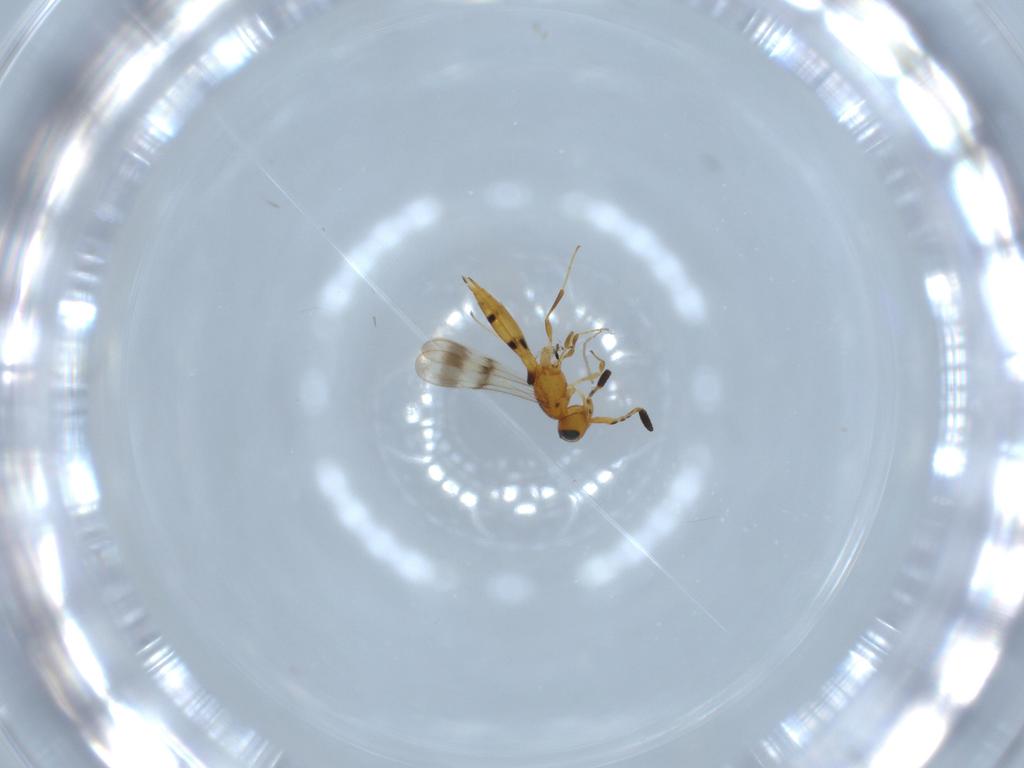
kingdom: Animalia
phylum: Arthropoda
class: Insecta
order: Hymenoptera
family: Scelionidae
